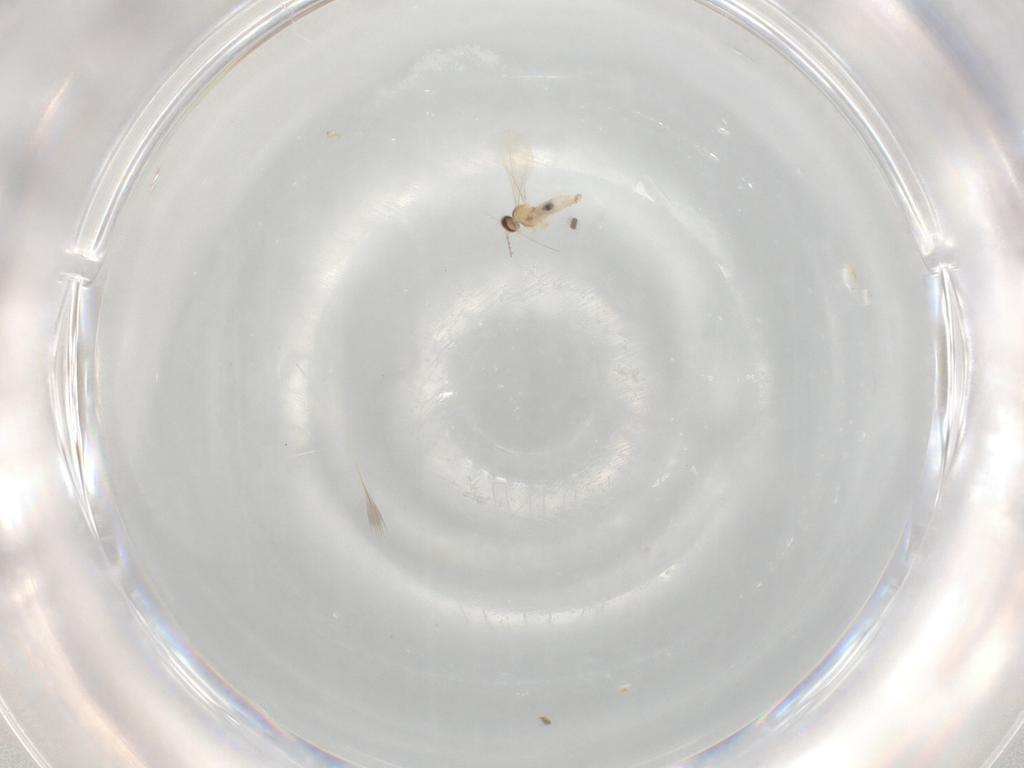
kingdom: Animalia
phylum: Arthropoda
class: Insecta
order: Diptera
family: Cecidomyiidae
